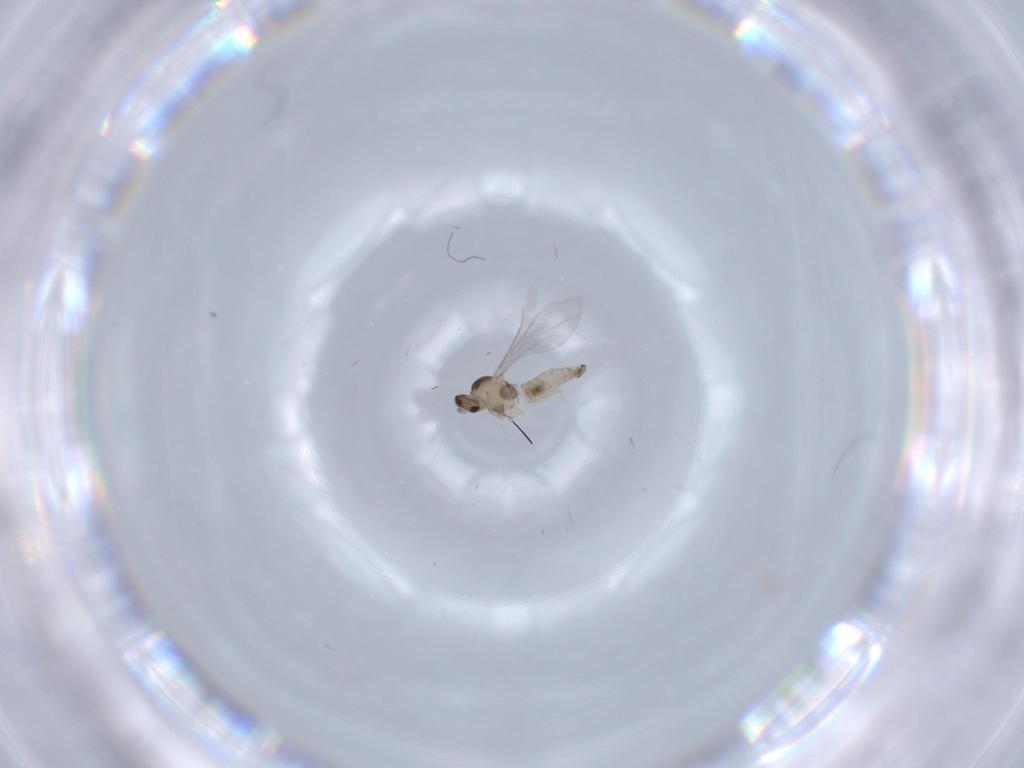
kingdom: Animalia
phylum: Arthropoda
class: Insecta
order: Diptera
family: Cecidomyiidae
